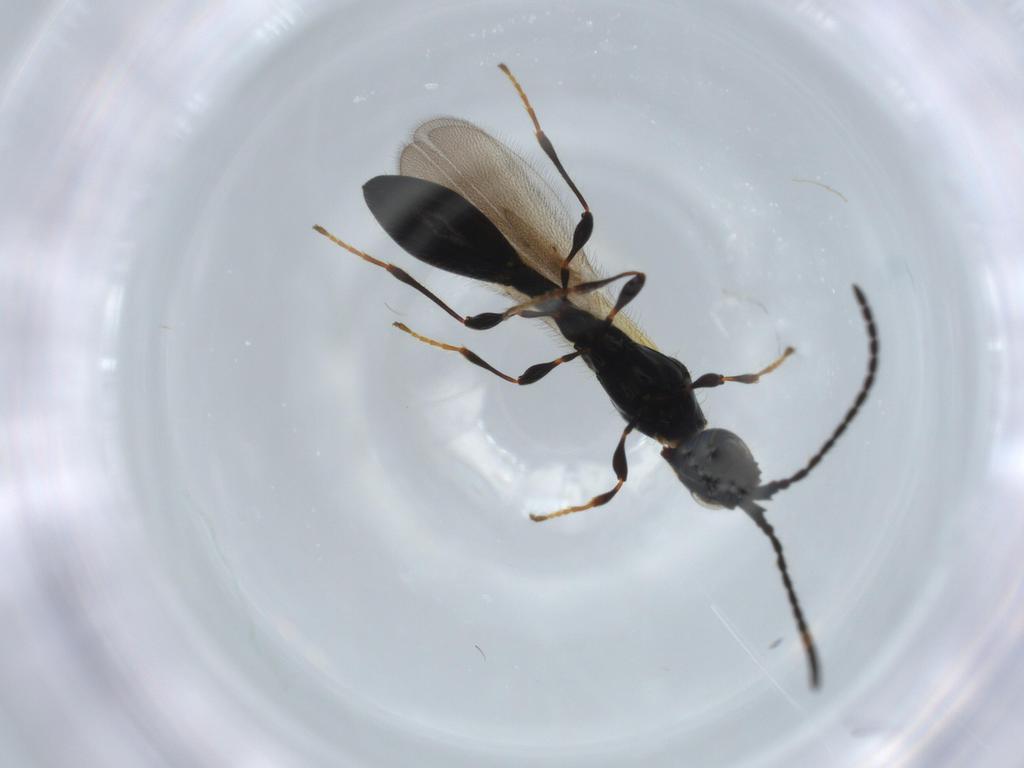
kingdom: Animalia
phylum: Arthropoda
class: Insecta
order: Hymenoptera
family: Diapriidae
